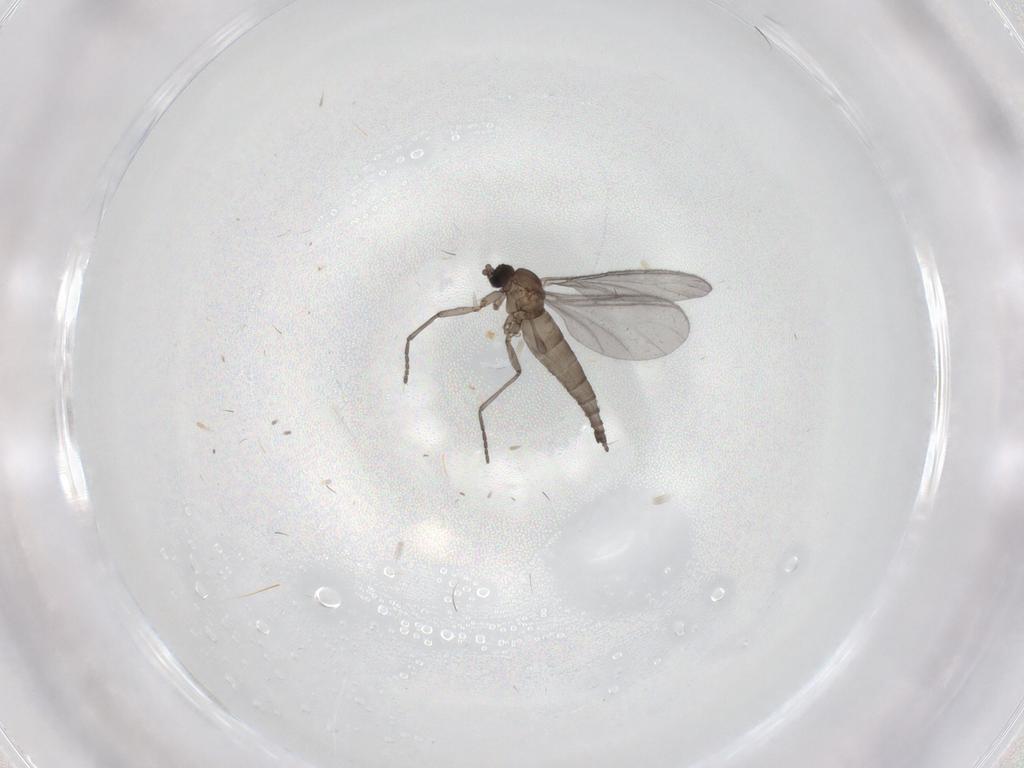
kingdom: Animalia
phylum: Arthropoda
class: Insecta
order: Diptera
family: Sciaridae
